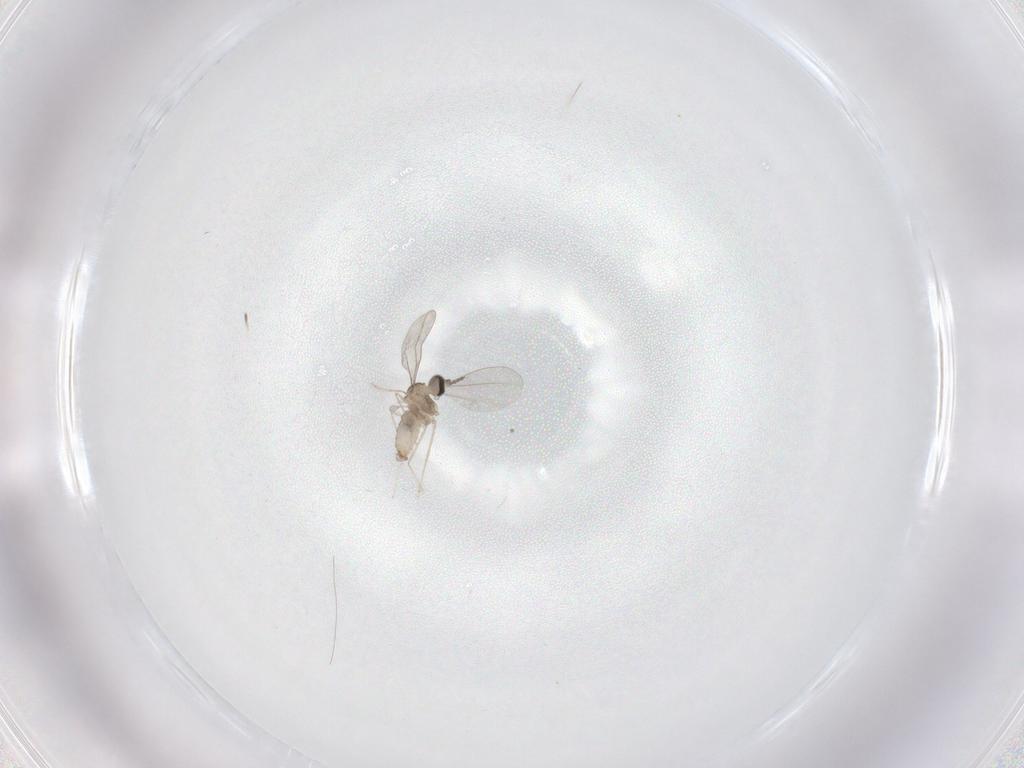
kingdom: Animalia
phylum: Arthropoda
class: Insecta
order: Diptera
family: Cecidomyiidae
